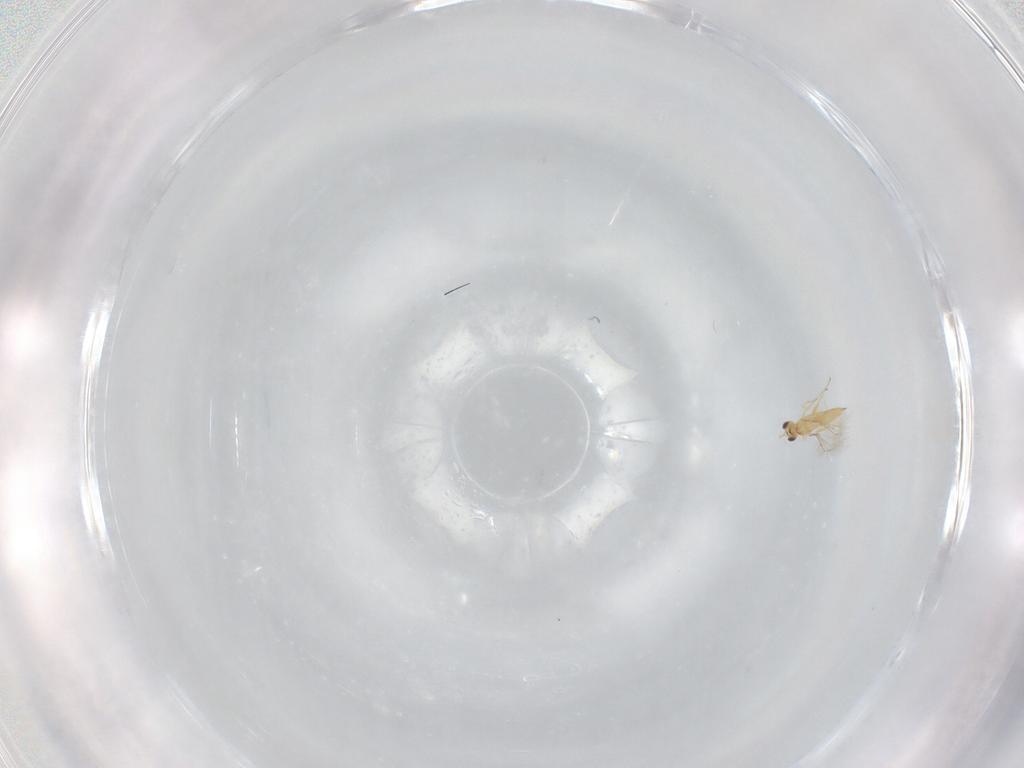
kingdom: Animalia
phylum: Arthropoda
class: Insecta
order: Hymenoptera
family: Mymaridae
